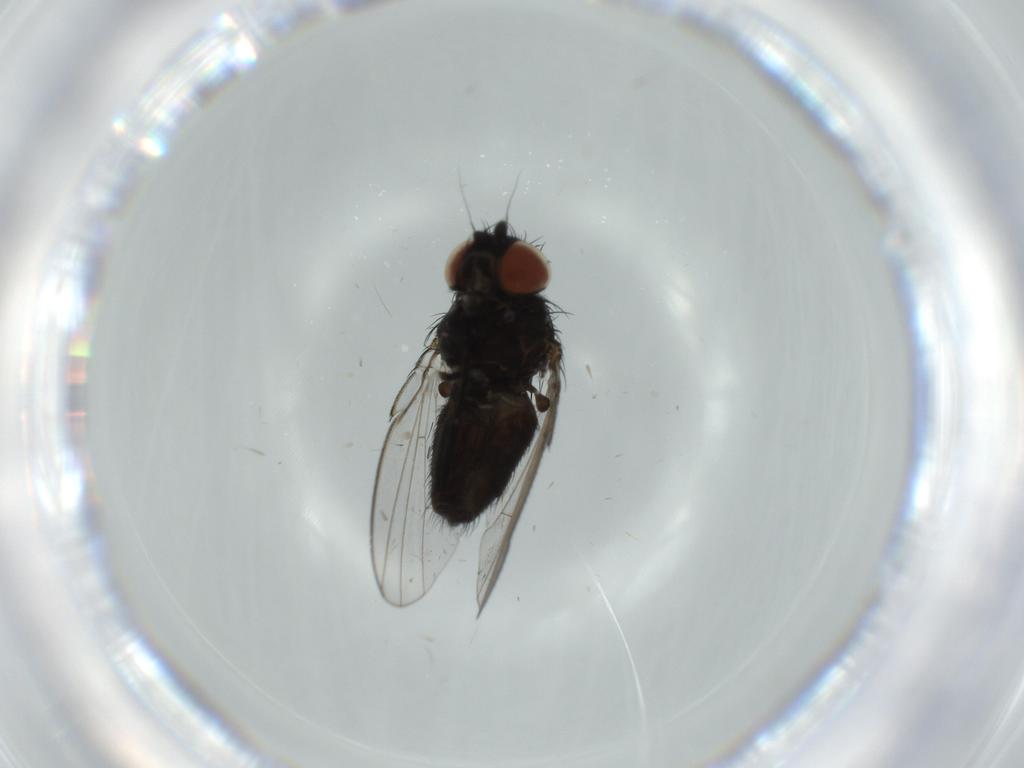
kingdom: Animalia
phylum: Arthropoda
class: Insecta
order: Diptera
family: Milichiidae
